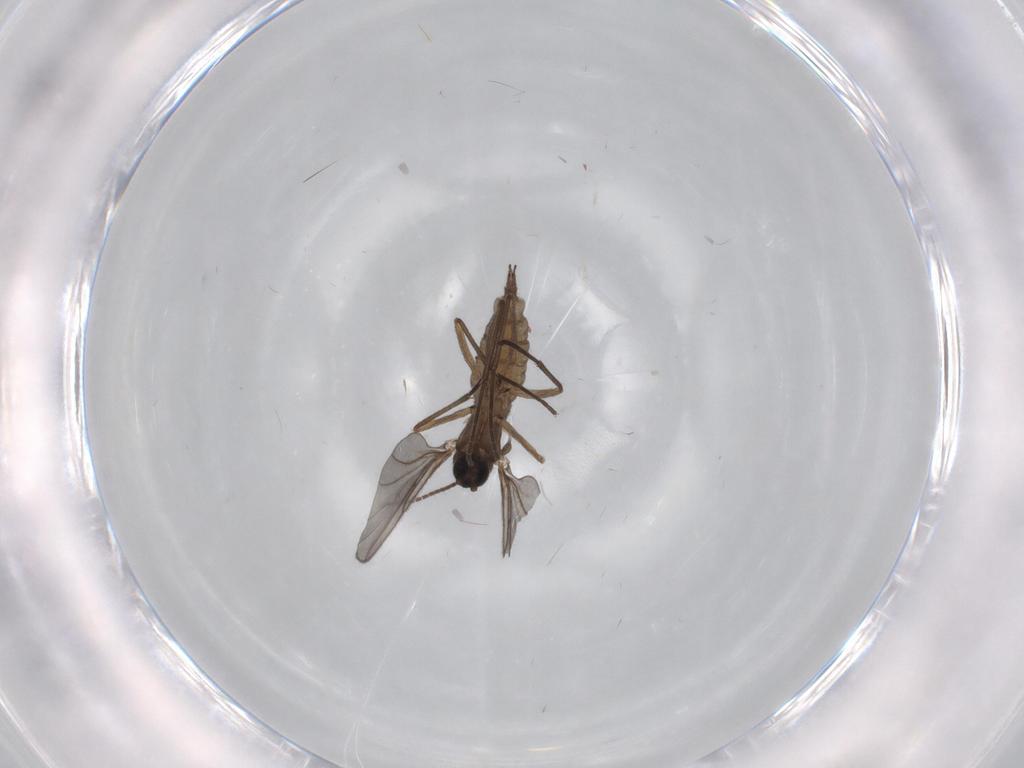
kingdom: Animalia
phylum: Arthropoda
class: Insecta
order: Diptera
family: Sciaridae
